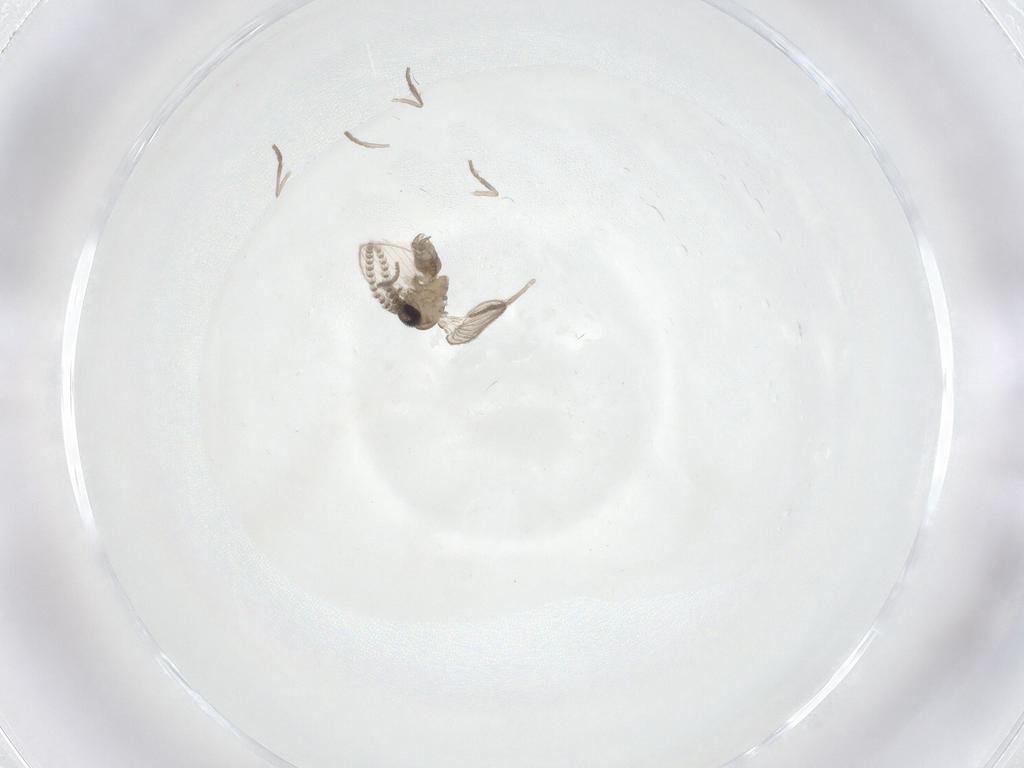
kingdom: Animalia
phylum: Arthropoda
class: Insecta
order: Diptera
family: Psychodidae
